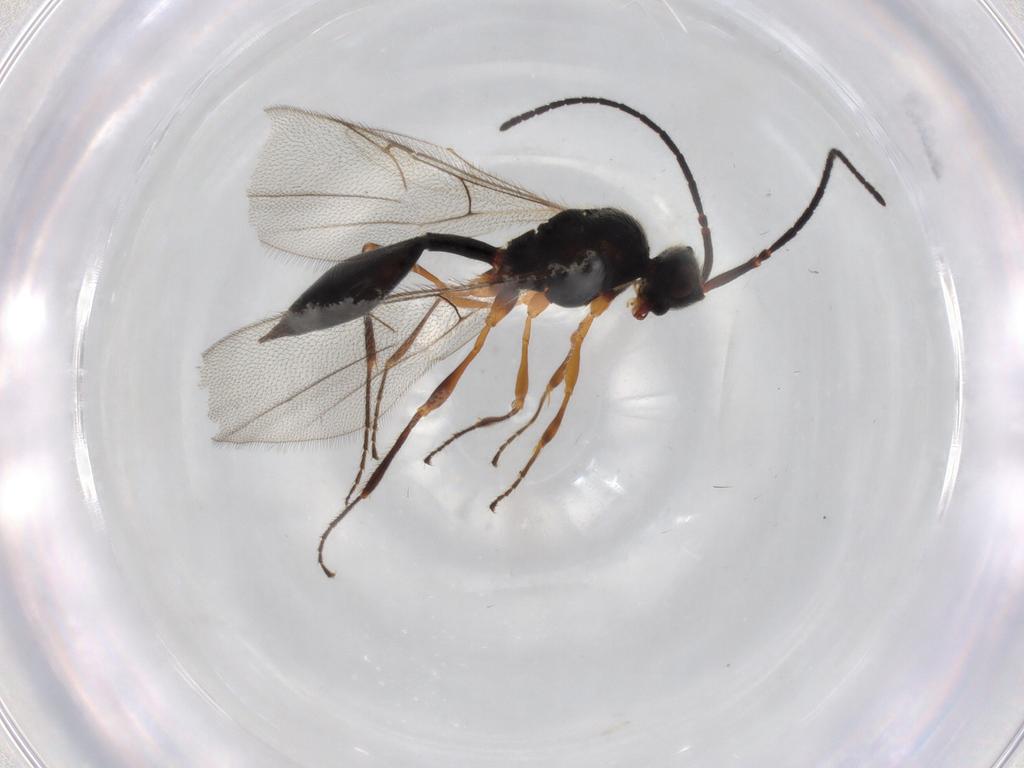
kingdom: Animalia
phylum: Arthropoda
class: Insecta
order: Hymenoptera
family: Diapriidae
